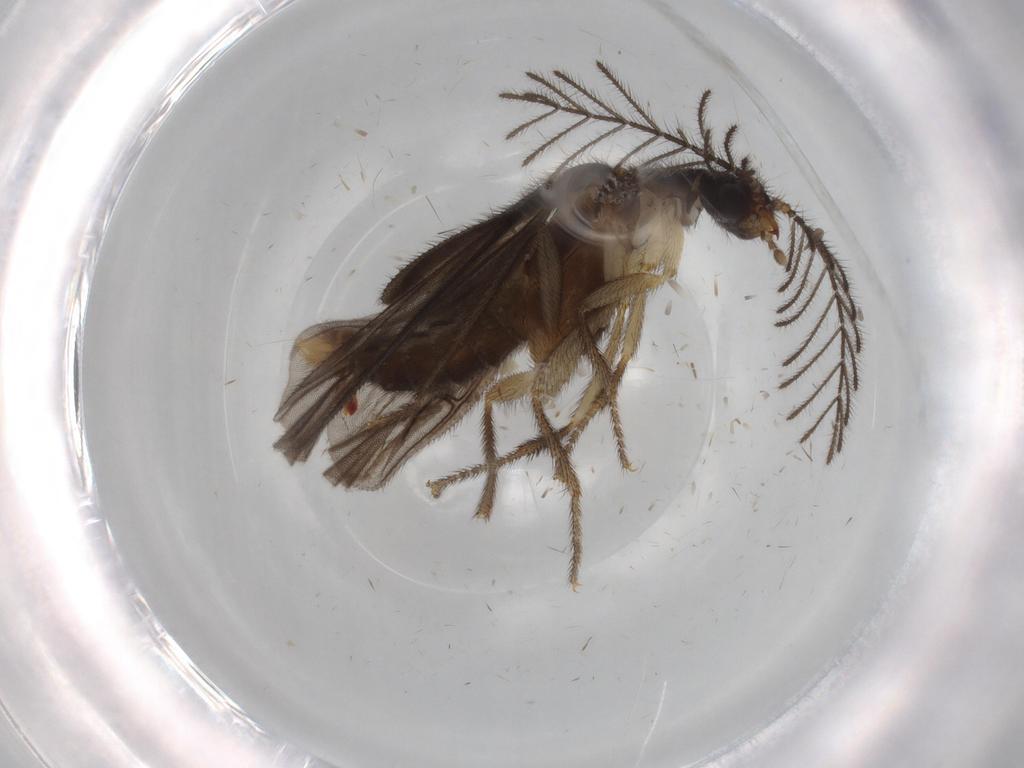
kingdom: Animalia
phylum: Arthropoda
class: Insecta
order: Coleoptera
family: Phengodidae
